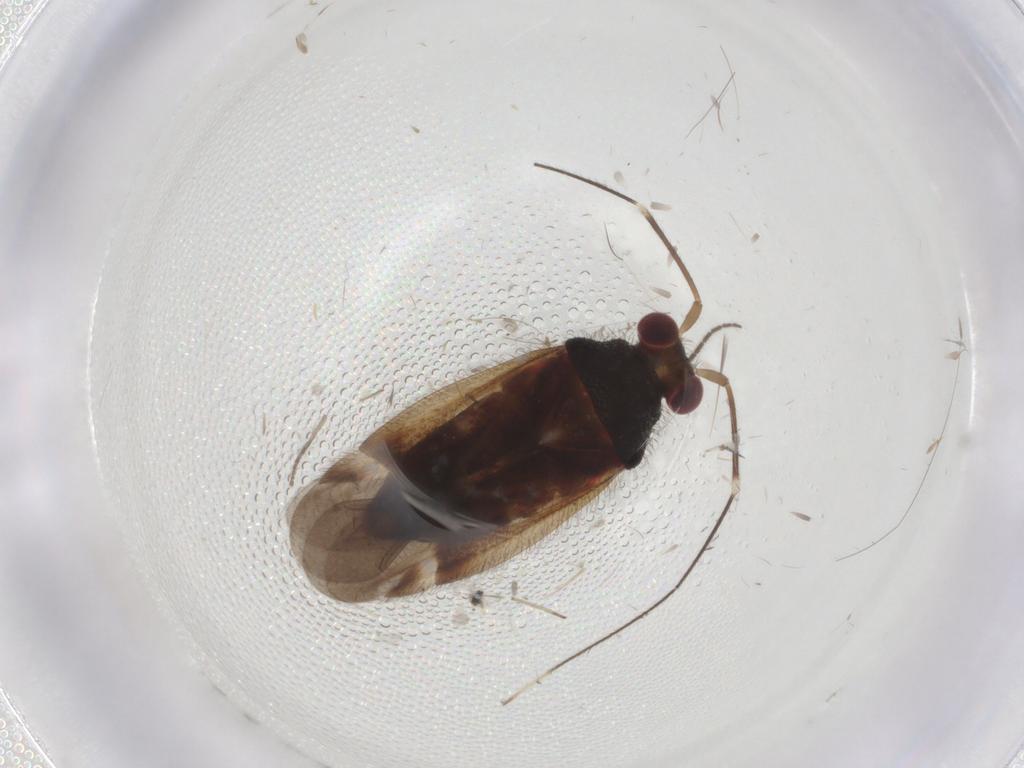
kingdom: Animalia
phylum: Arthropoda
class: Insecta
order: Hemiptera
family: Miridae
